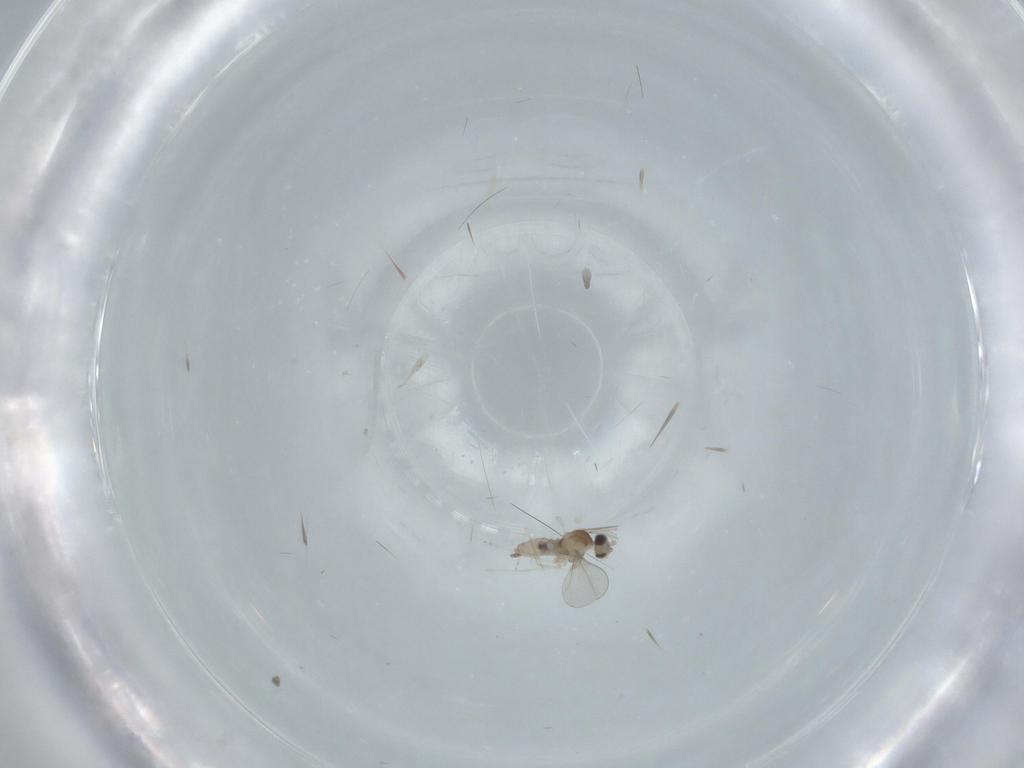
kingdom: Animalia
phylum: Arthropoda
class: Insecta
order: Diptera
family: Cecidomyiidae
